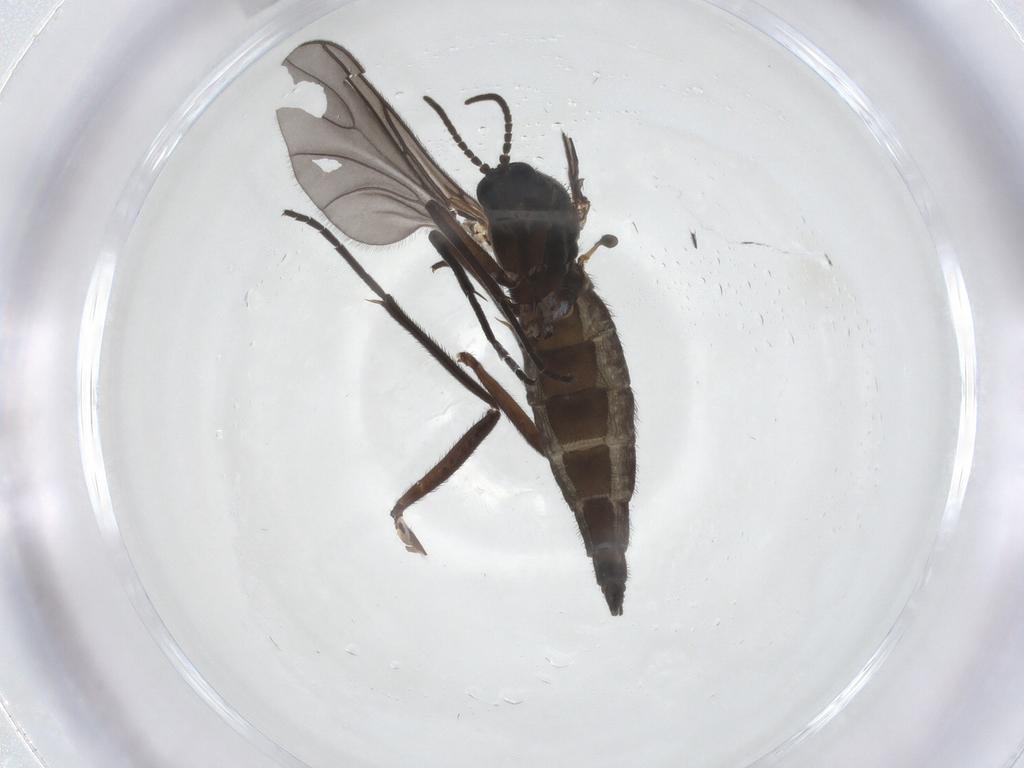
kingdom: Animalia
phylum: Arthropoda
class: Insecta
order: Diptera
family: Sciaridae
